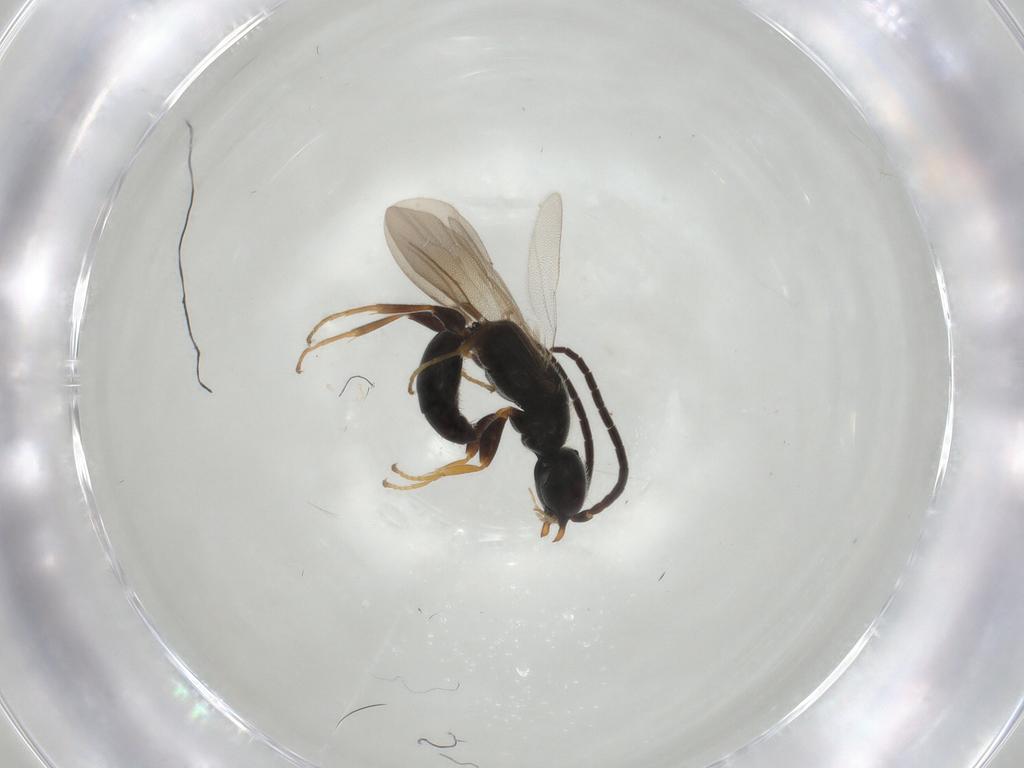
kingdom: Animalia
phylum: Arthropoda
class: Insecta
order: Hymenoptera
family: Bethylidae
